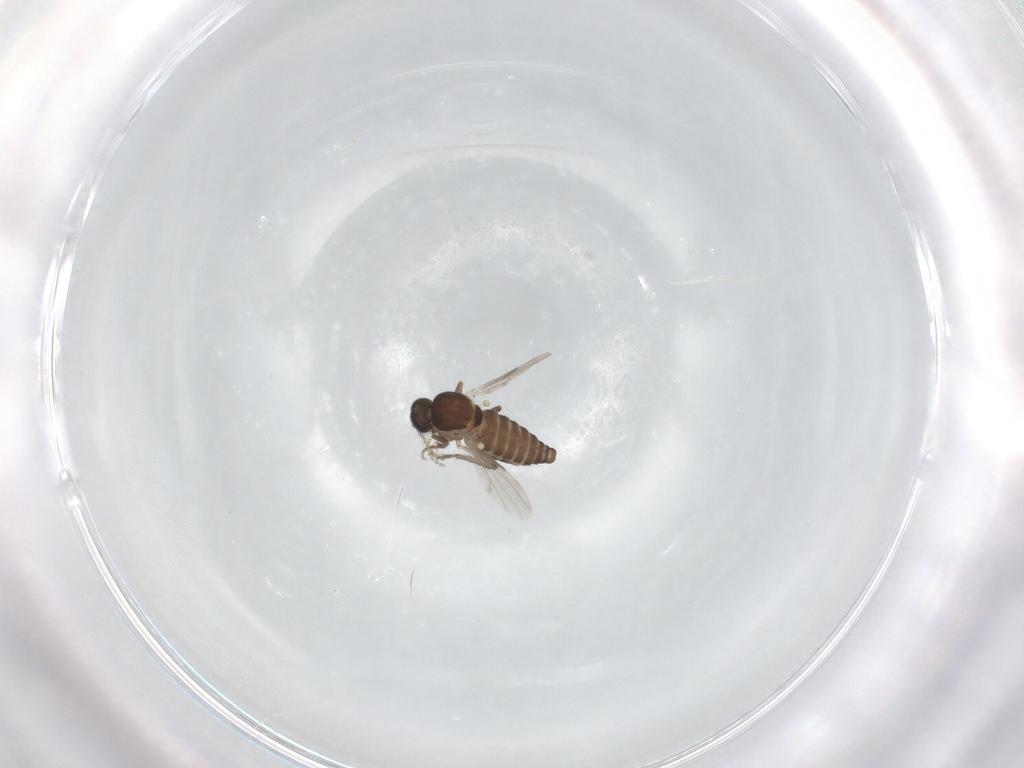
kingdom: Animalia
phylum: Arthropoda
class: Insecta
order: Diptera
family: Ceratopogonidae
